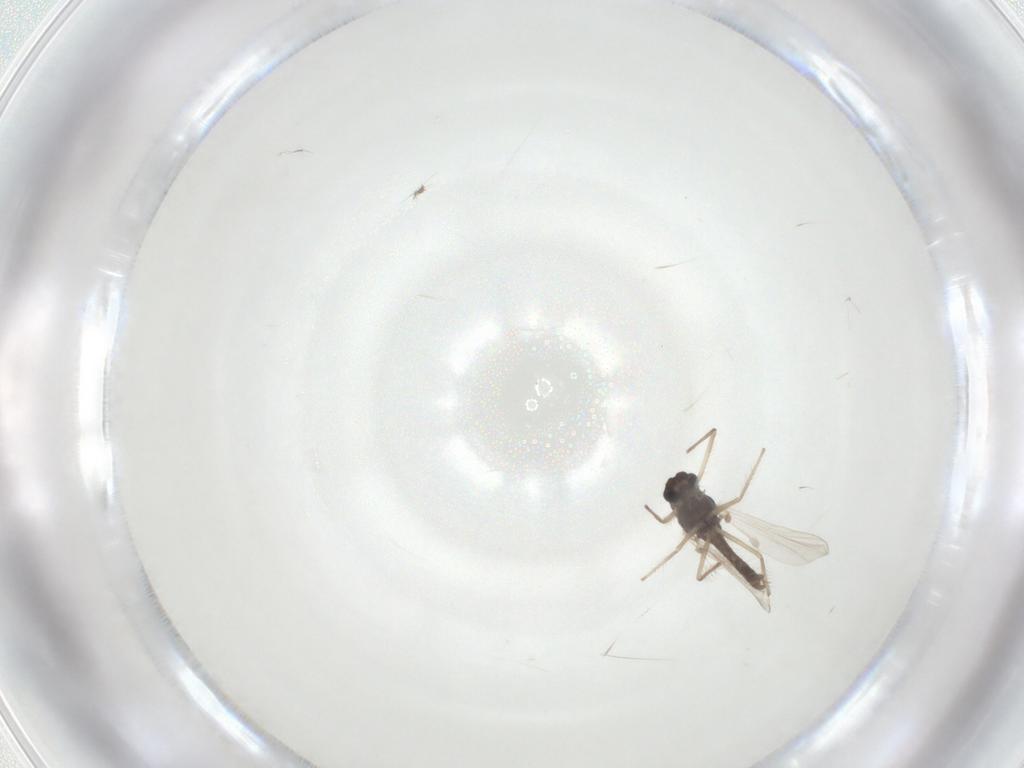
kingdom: Animalia
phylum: Arthropoda
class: Insecta
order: Diptera
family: Chironomidae
